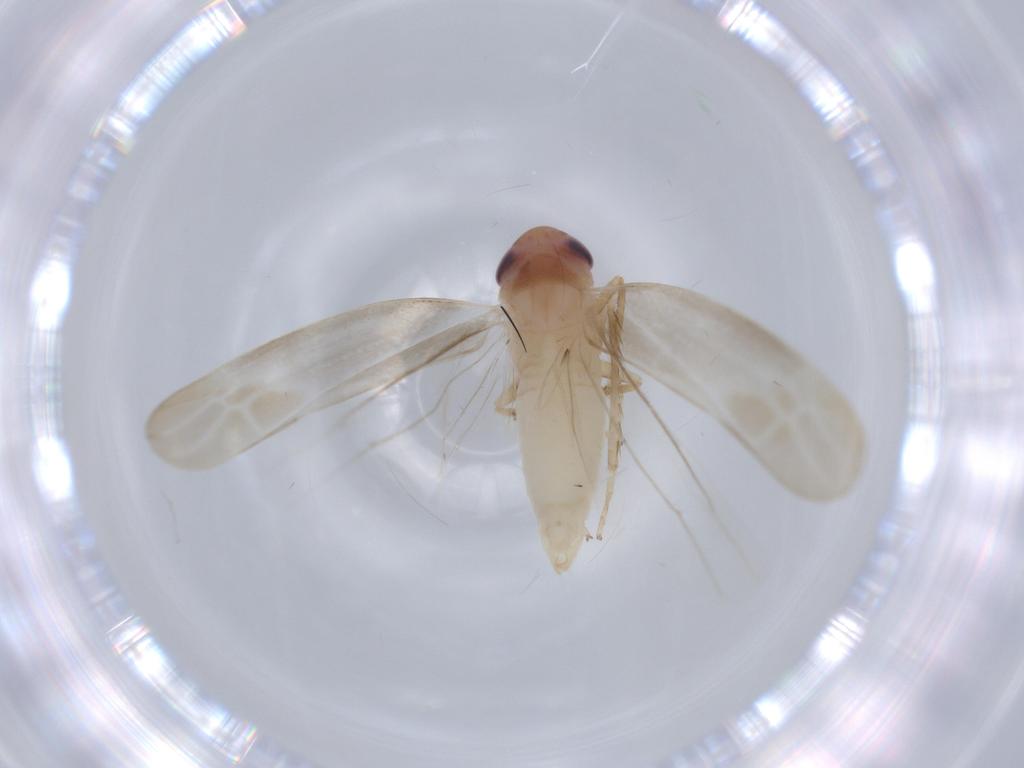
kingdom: Animalia
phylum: Arthropoda
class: Insecta
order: Hemiptera
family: Cicadellidae
